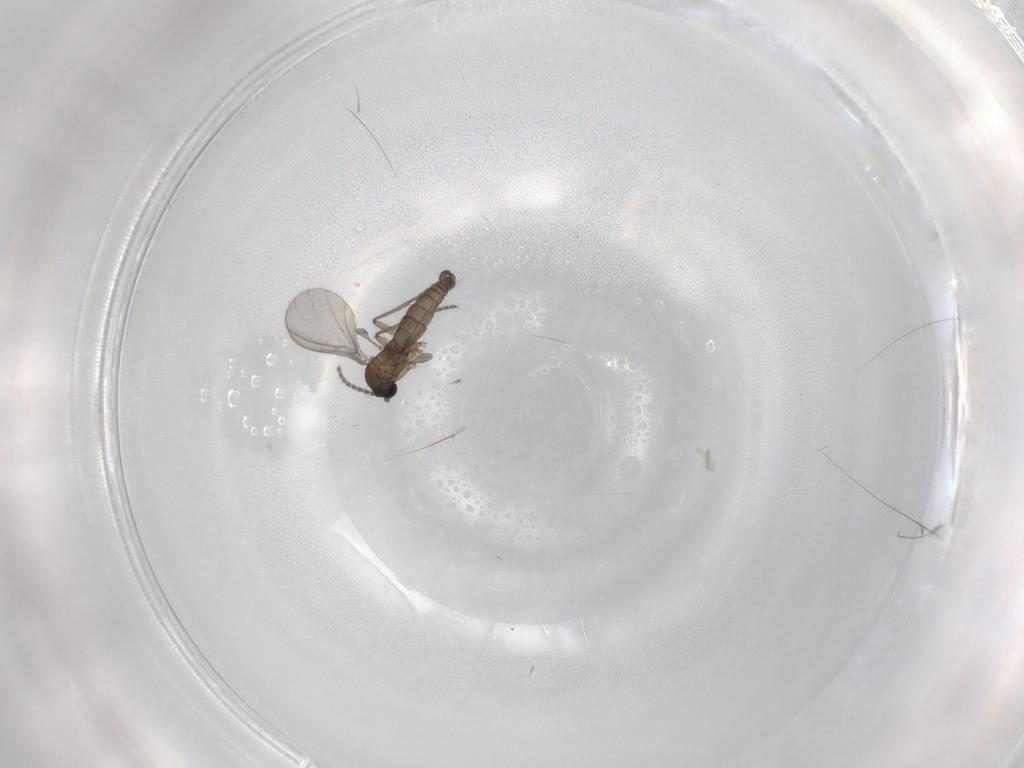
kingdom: Animalia
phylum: Arthropoda
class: Insecta
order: Diptera
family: Sciaridae
